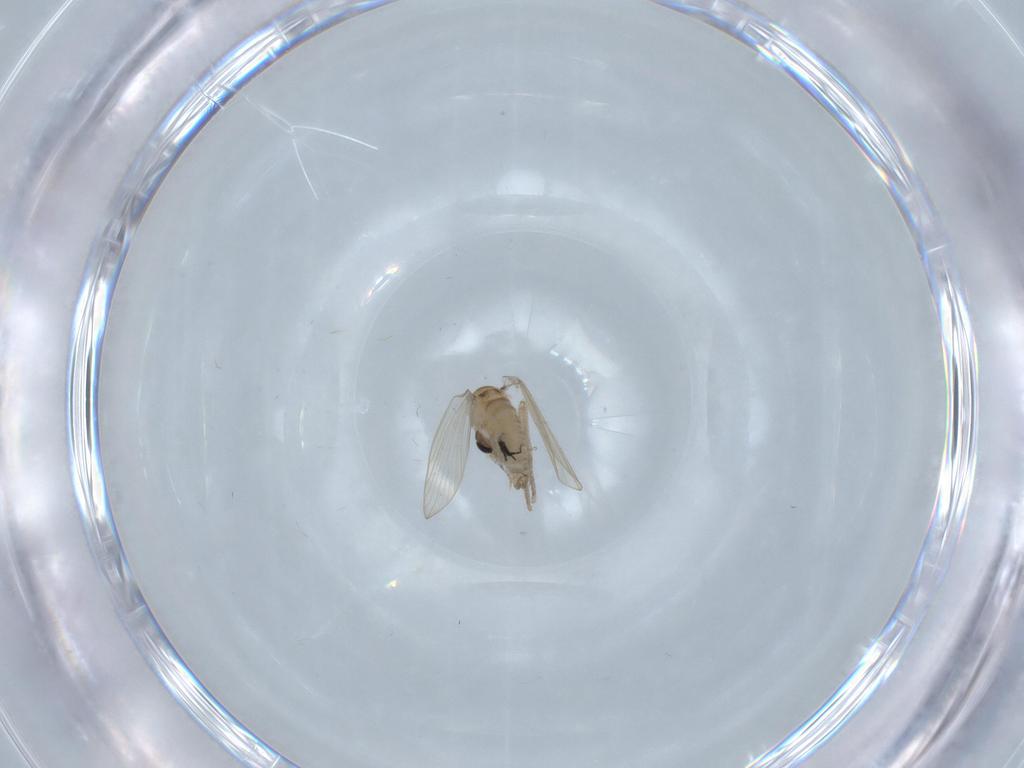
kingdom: Animalia
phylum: Arthropoda
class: Insecta
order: Diptera
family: Psychodidae
